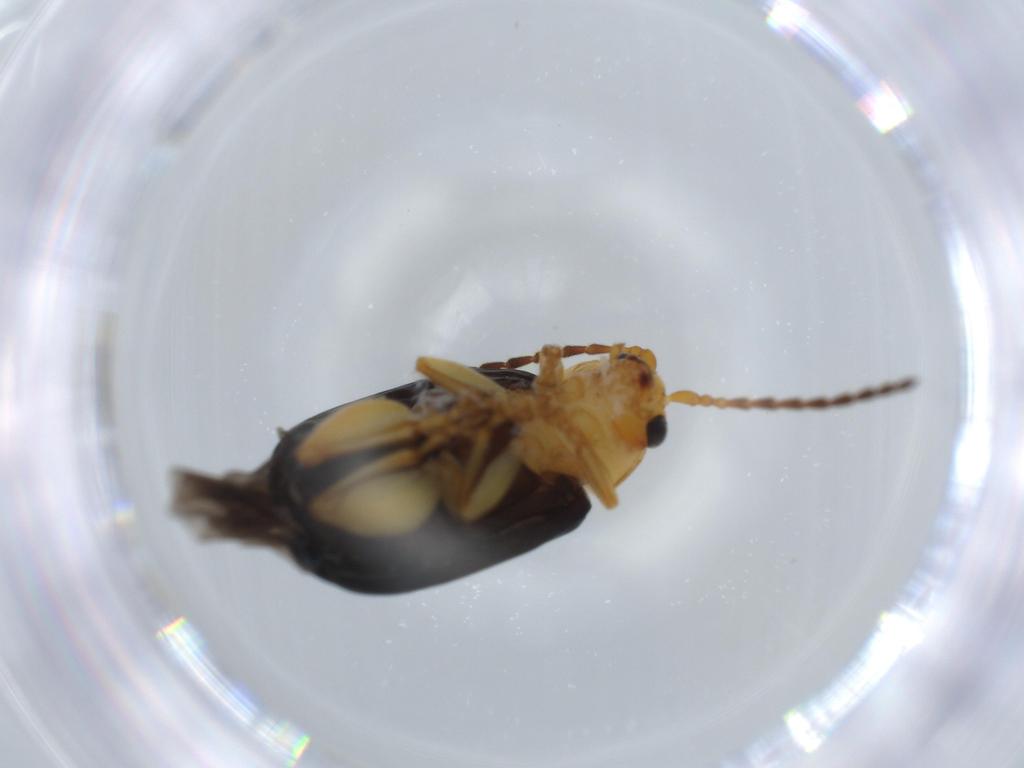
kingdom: Animalia
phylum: Arthropoda
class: Insecta
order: Coleoptera
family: Chrysomelidae
